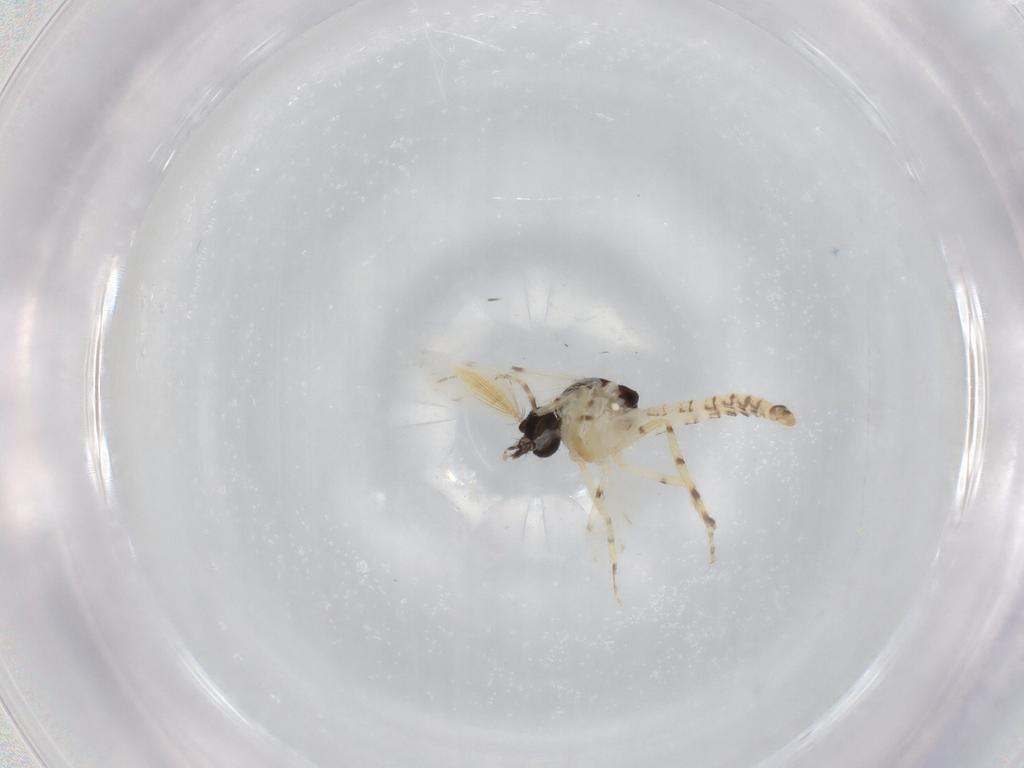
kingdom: Animalia
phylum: Arthropoda
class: Insecta
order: Diptera
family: Ceratopogonidae
